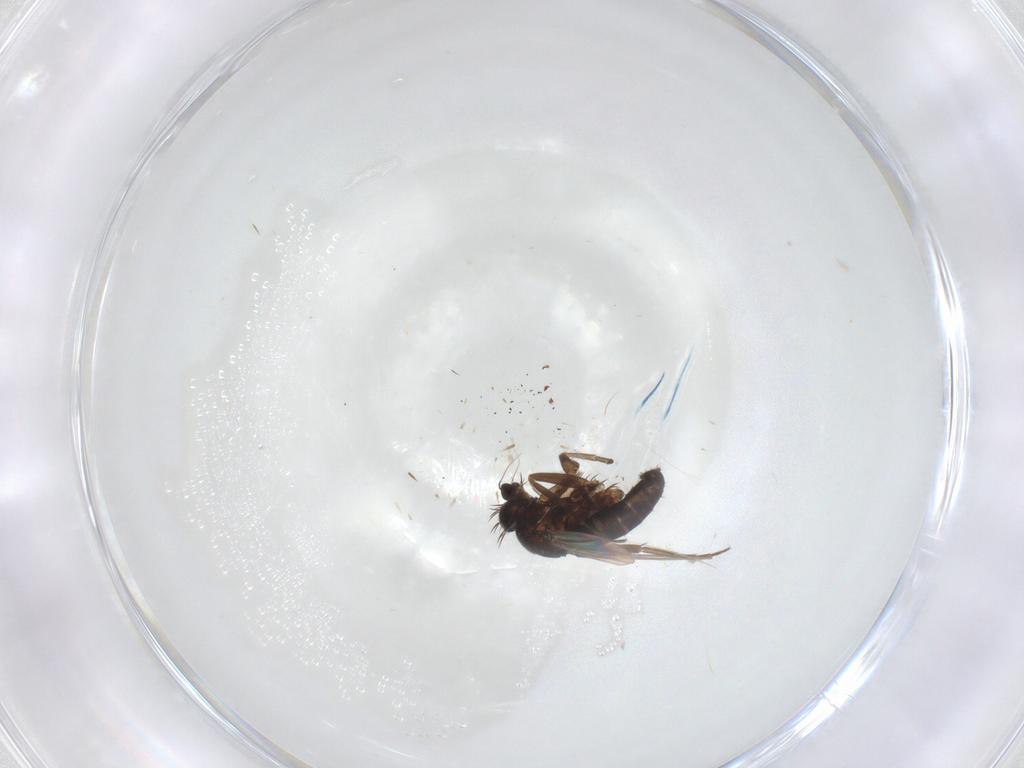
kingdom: Animalia
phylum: Arthropoda
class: Insecta
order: Diptera
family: Phoridae
